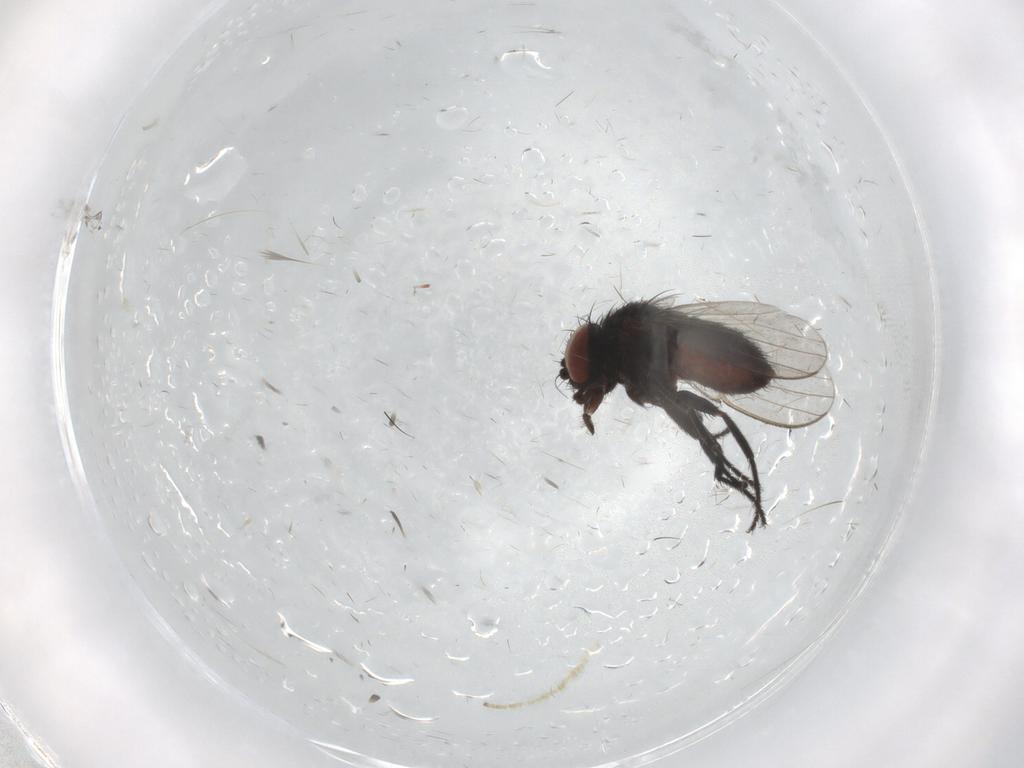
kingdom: Animalia
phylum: Arthropoda
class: Insecta
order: Diptera
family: Milichiidae
